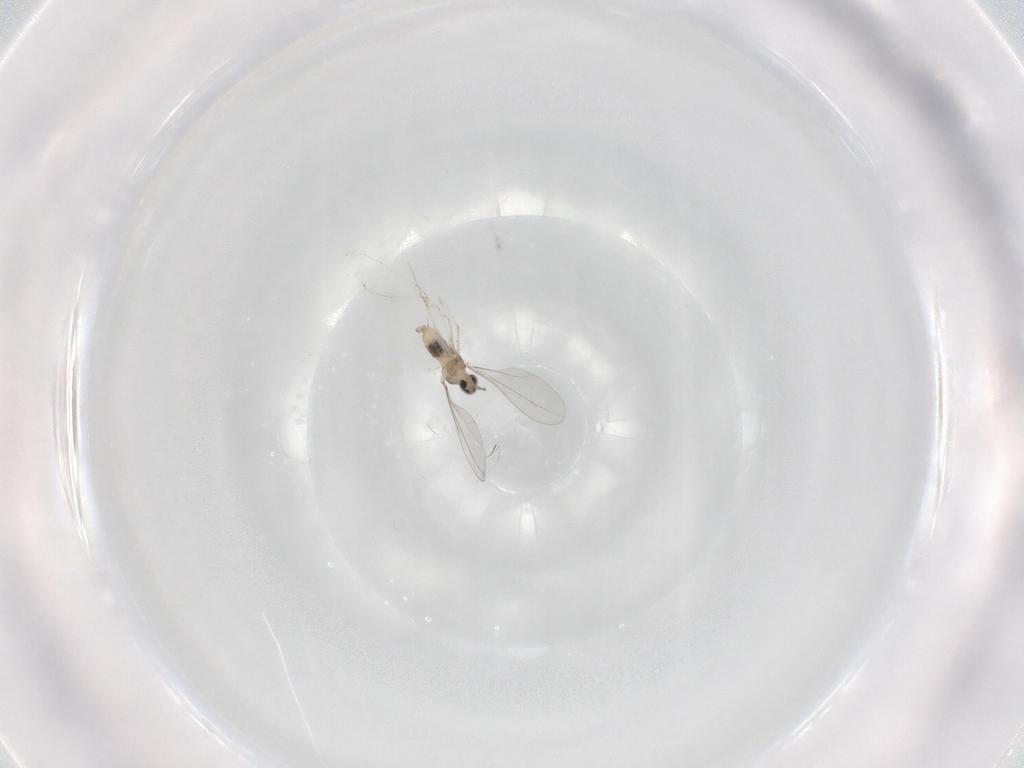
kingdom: Animalia
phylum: Arthropoda
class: Insecta
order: Diptera
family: Cecidomyiidae
